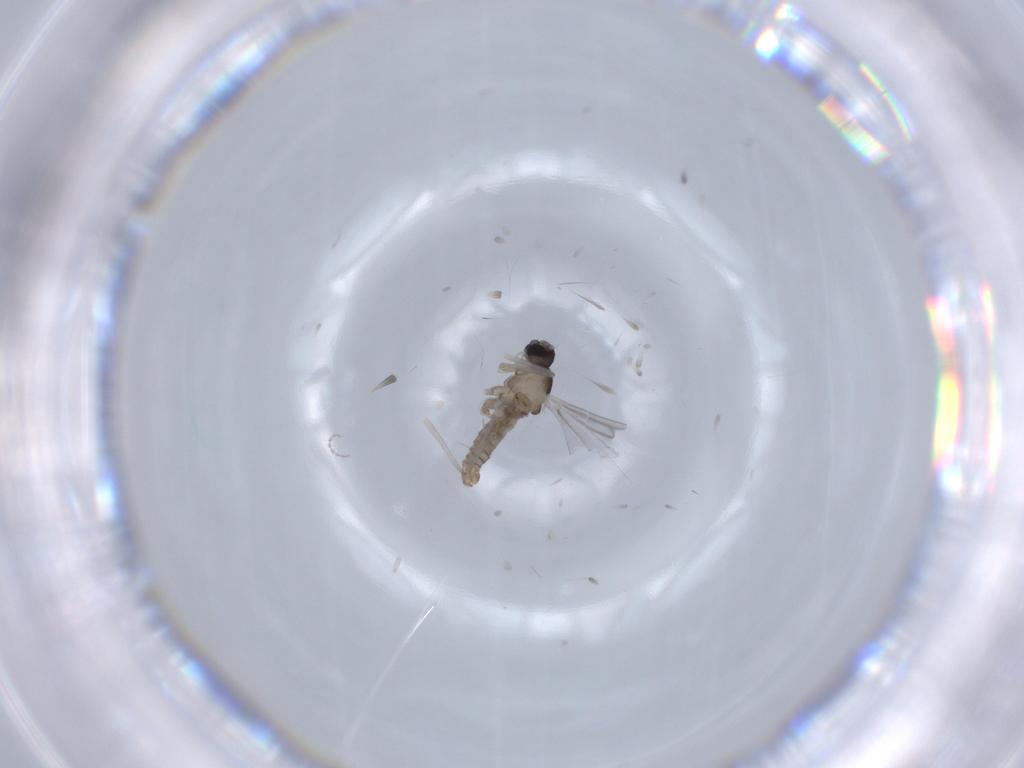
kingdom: Animalia
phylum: Arthropoda
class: Insecta
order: Diptera
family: Cecidomyiidae
